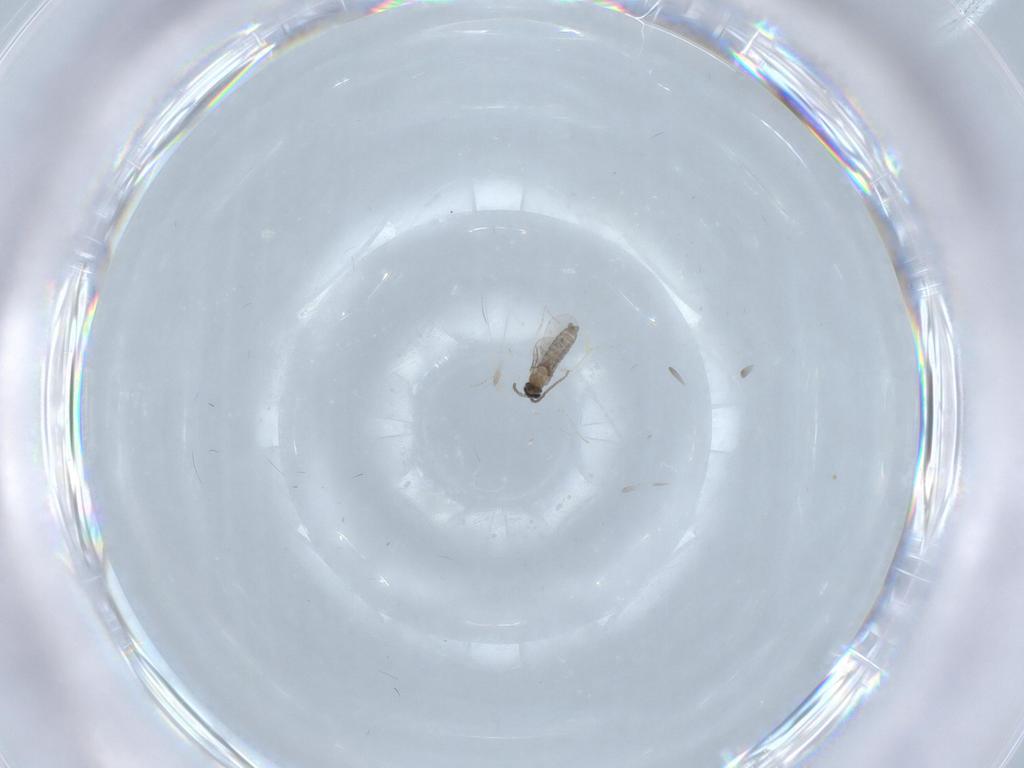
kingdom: Animalia
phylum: Arthropoda
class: Insecta
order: Diptera
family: Cecidomyiidae
